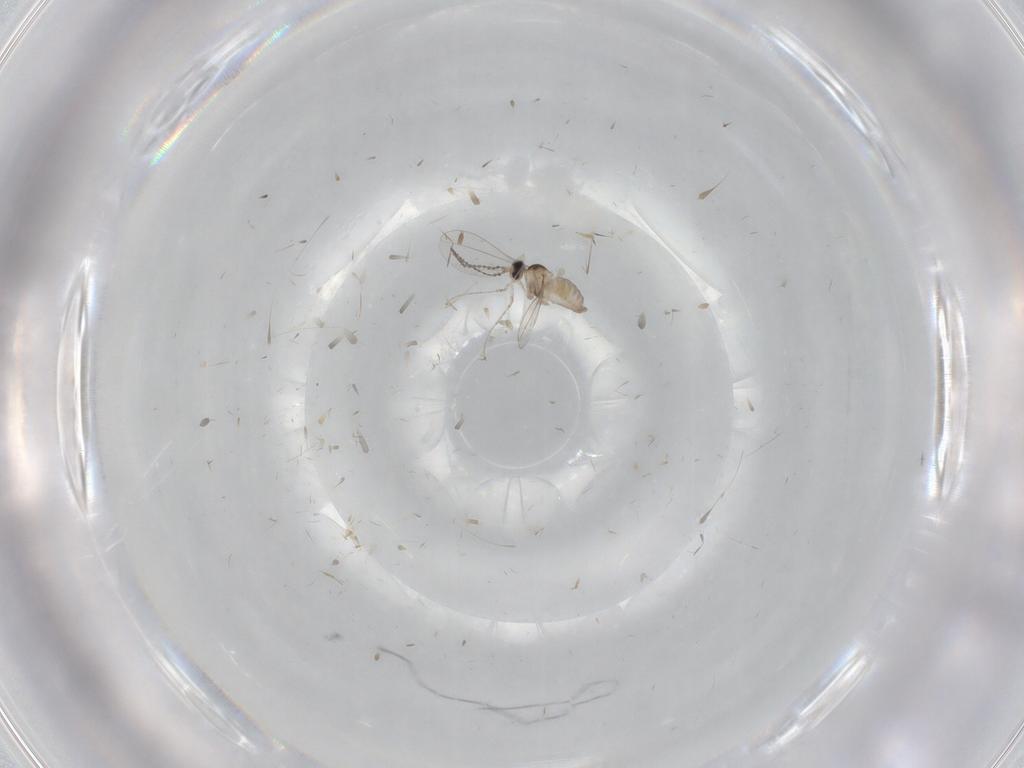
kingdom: Animalia
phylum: Arthropoda
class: Insecta
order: Diptera
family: Cecidomyiidae
